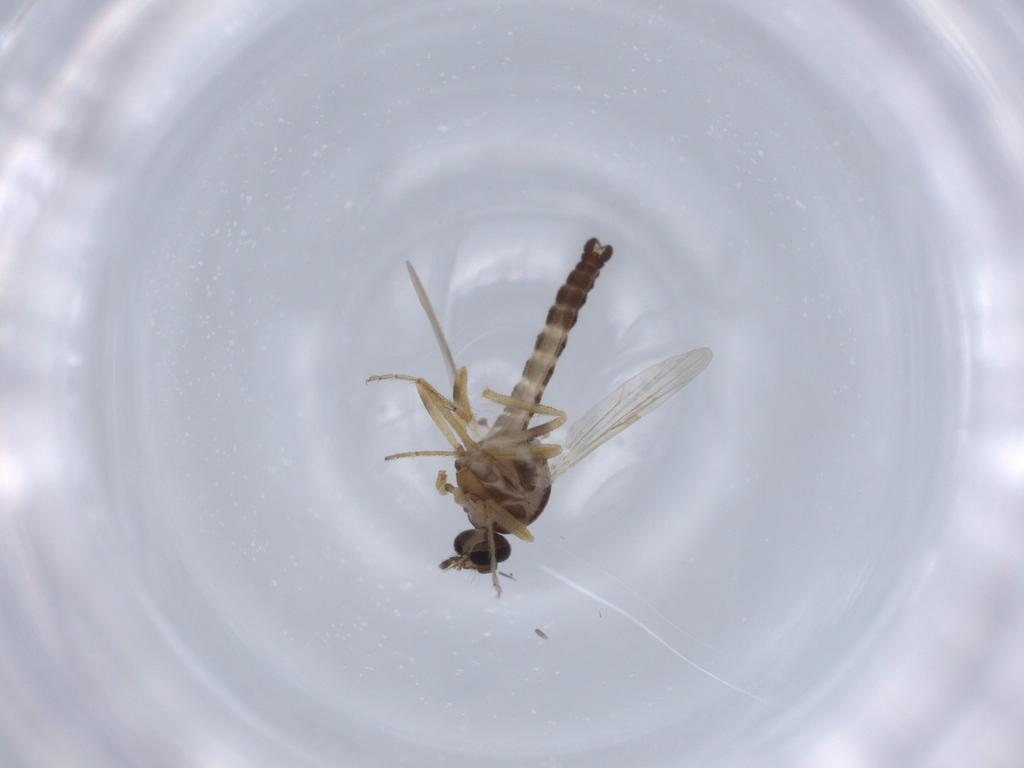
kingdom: Animalia
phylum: Arthropoda
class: Insecta
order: Diptera
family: Ceratopogonidae
